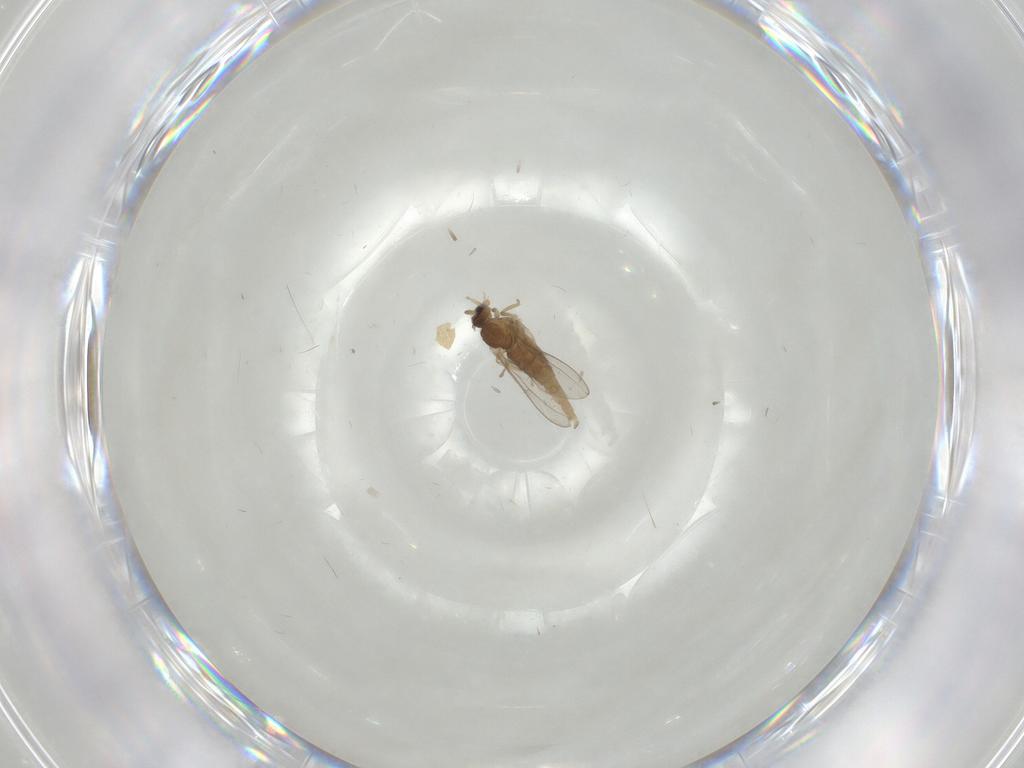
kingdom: Animalia
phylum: Arthropoda
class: Insecta
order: Diptera
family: Cecidomyiidae
